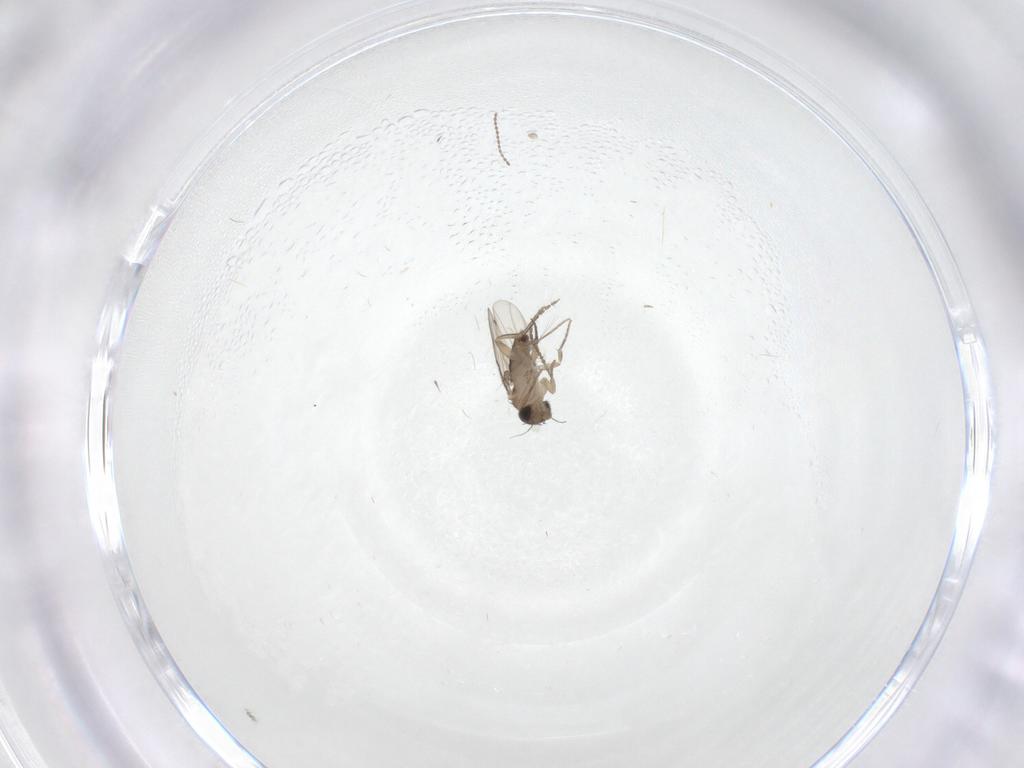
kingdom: Animalia
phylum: Arthropoda
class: Insecta
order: Diptera
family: Cecidomyiidae
